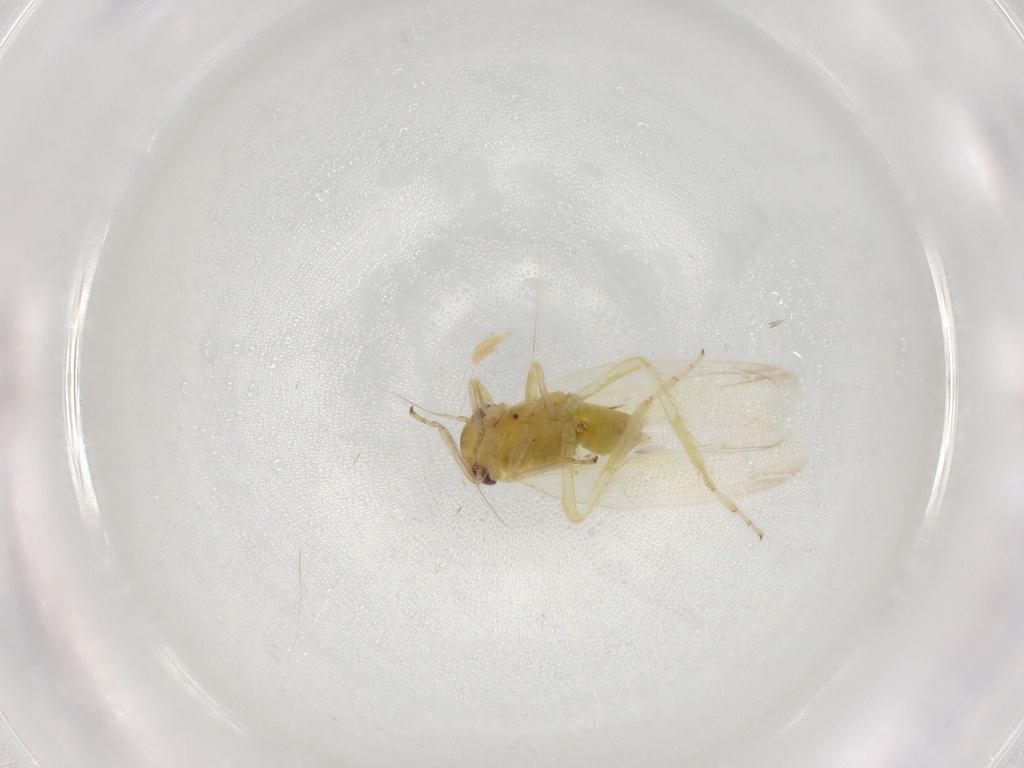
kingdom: Animalia
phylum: Arthropoda
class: Insecta
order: Hemiptera
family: Cicadellidae
